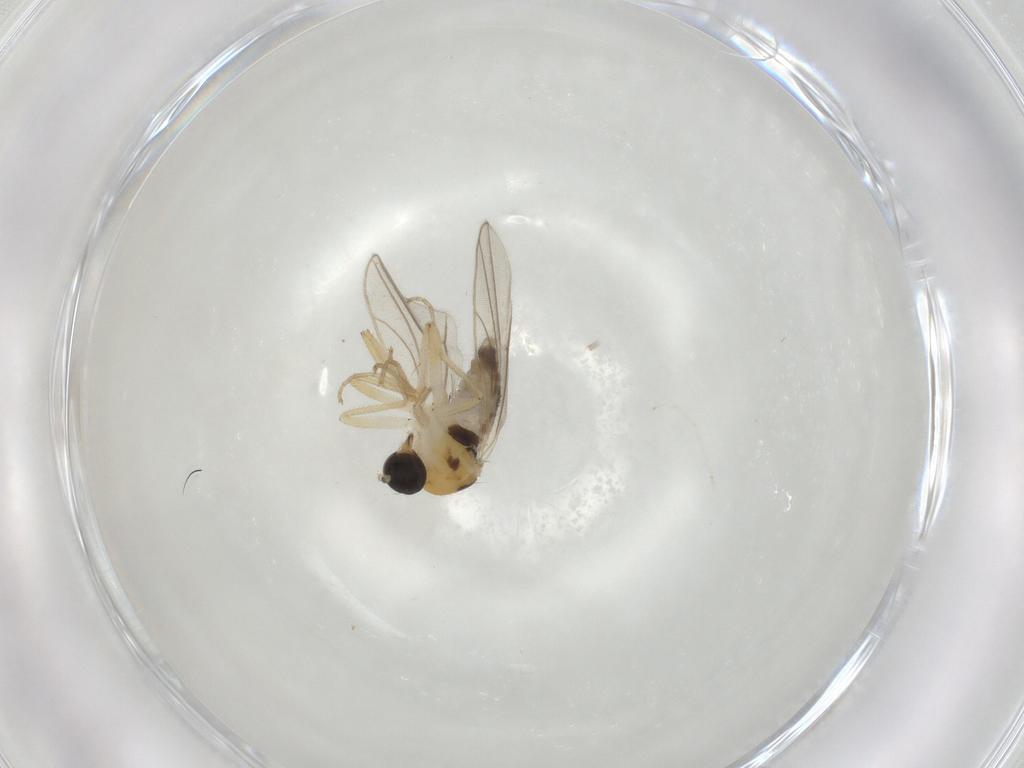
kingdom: Animalia
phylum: Arthropoda
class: Insecta
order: Diptera
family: Hybotidae
